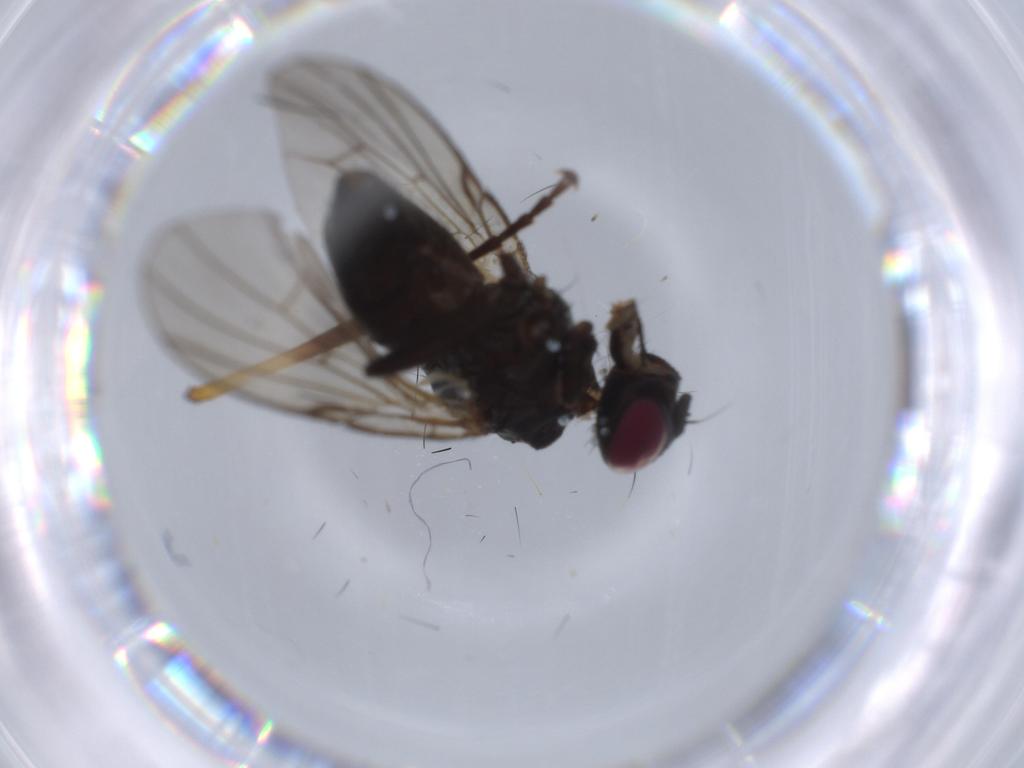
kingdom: Animalia
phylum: Arthropoda
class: Insecta
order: Diptera
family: Muscidae
